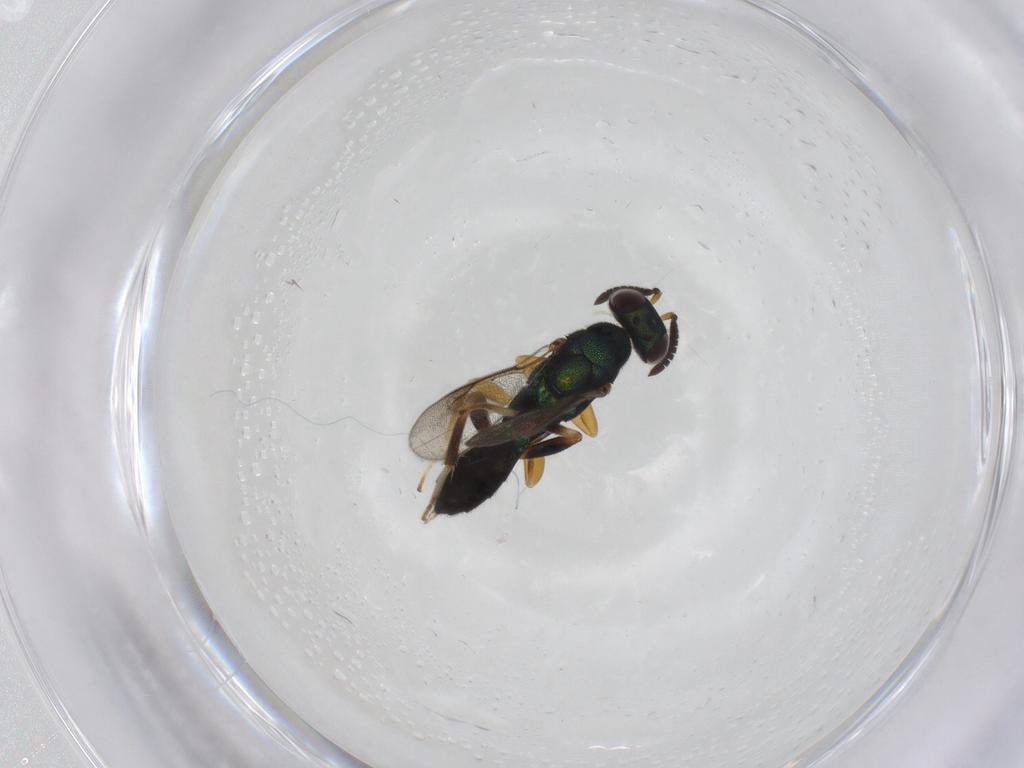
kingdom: Animalia
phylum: Arthropoda
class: Insecta
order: Hymenoptera
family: Cleonyminae
